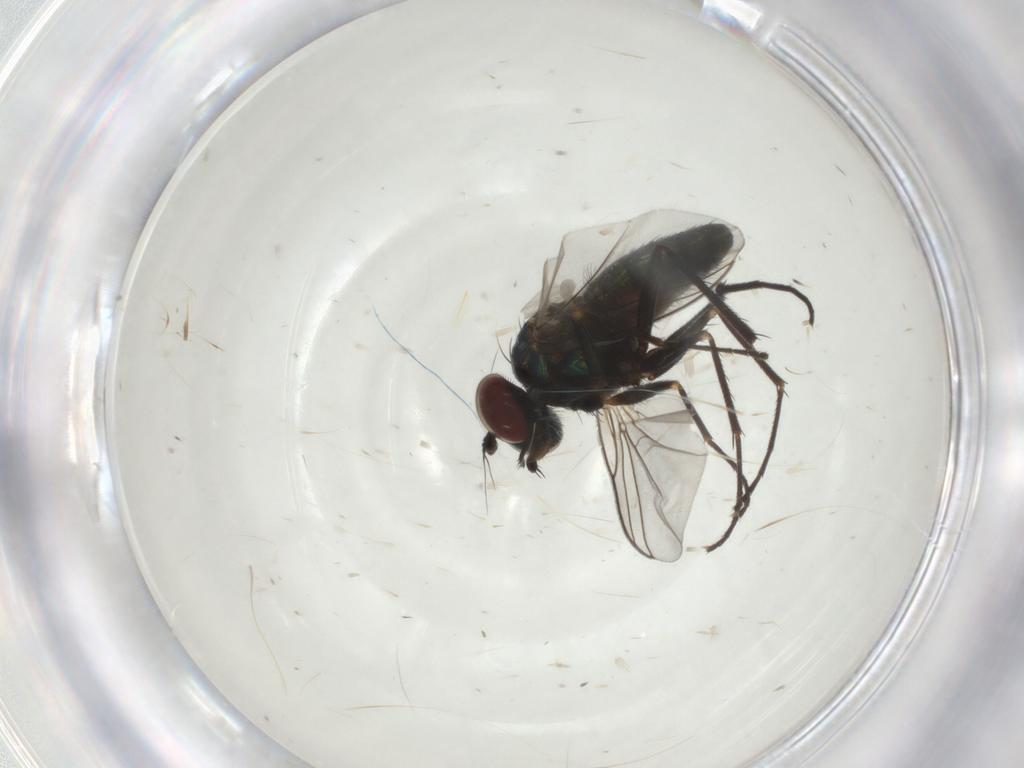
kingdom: Animalia
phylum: Arthropoda
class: Insecta
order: Diptera
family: Dolichopodidae
